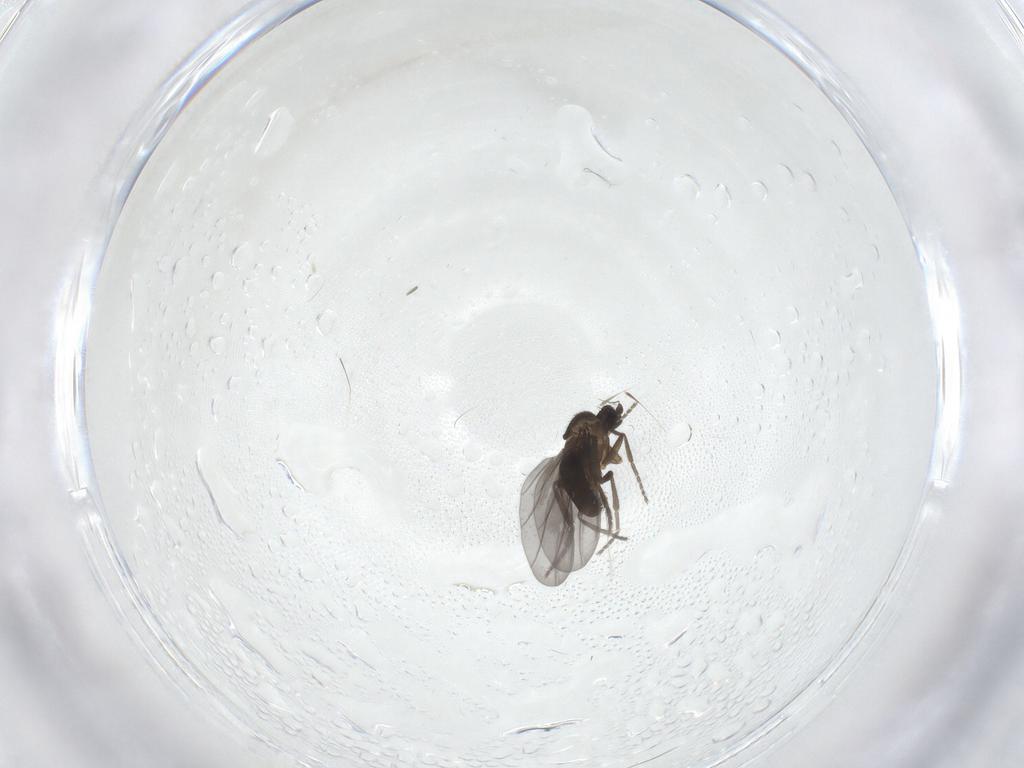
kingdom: Animalia
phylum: Arthropoda
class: Insecta
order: Diptera
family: Phoridae
